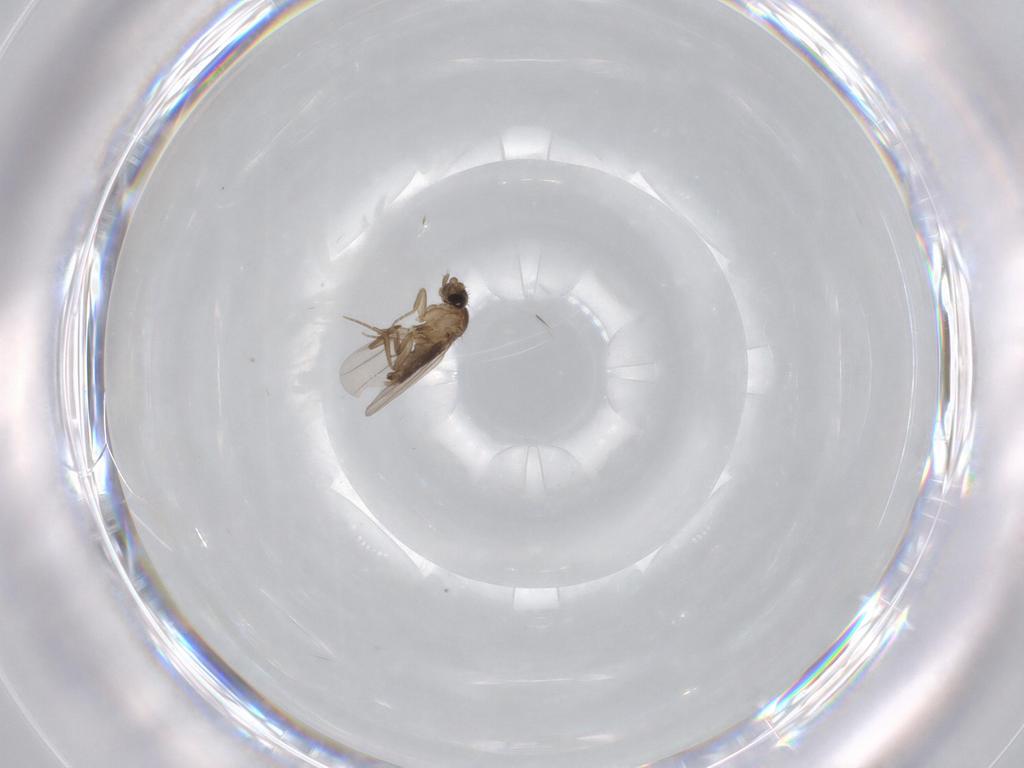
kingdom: Animalia
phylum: Arthropoda
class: Insecta
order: Diptera
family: Phoridae
